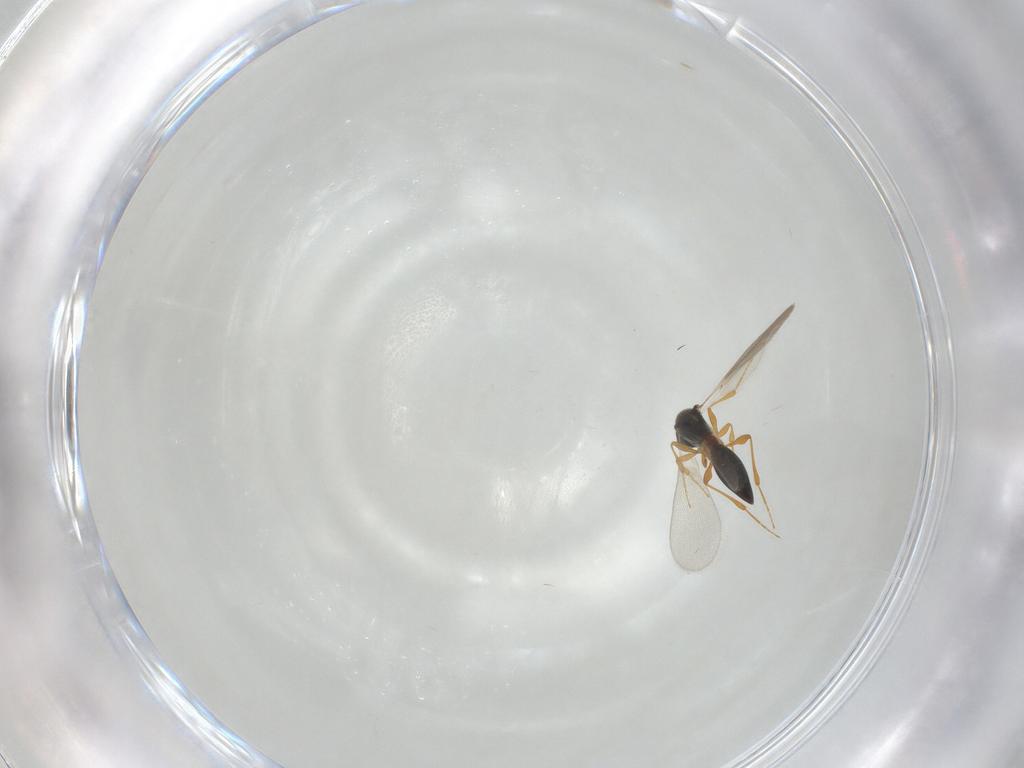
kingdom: Animalia
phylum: Arthropoda
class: Insecta
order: Hymenoptera
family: Platygastridae
